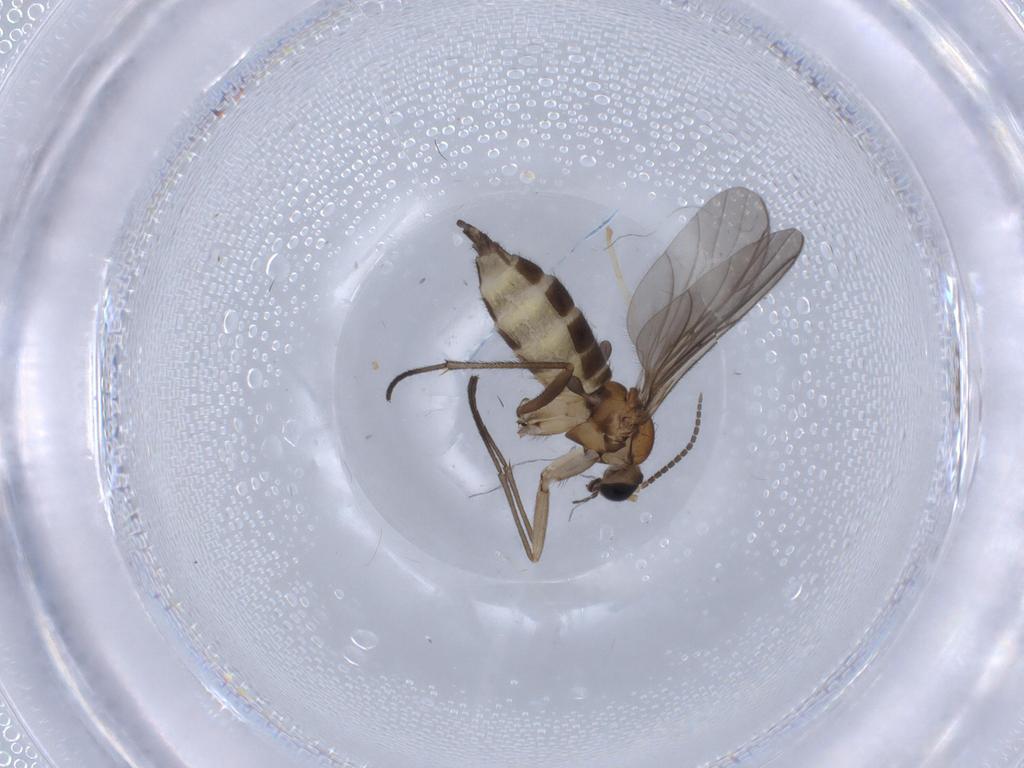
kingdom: Animalia
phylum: Arthropoda
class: Insecta
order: Diptera
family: Sciaridae
